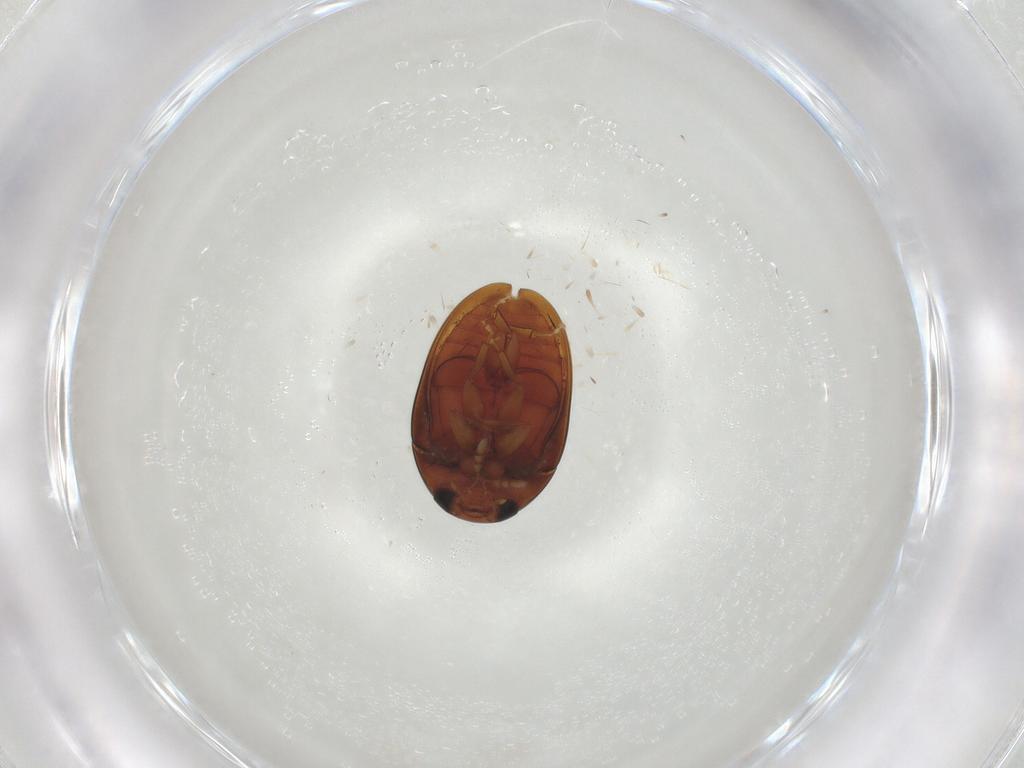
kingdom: Animalia
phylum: Arthropoda
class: Insecta
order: Coleoptera
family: Phalacridae
